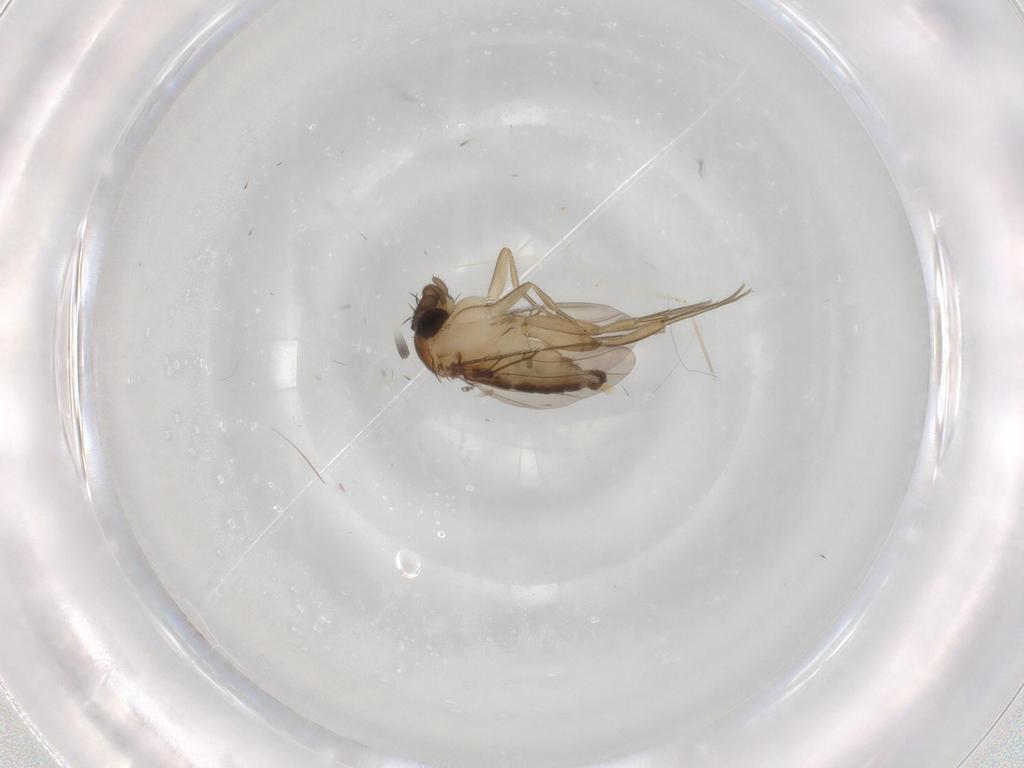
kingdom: Animalia
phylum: Arthropoda
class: Insecta
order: Diptera
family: Phoridae
